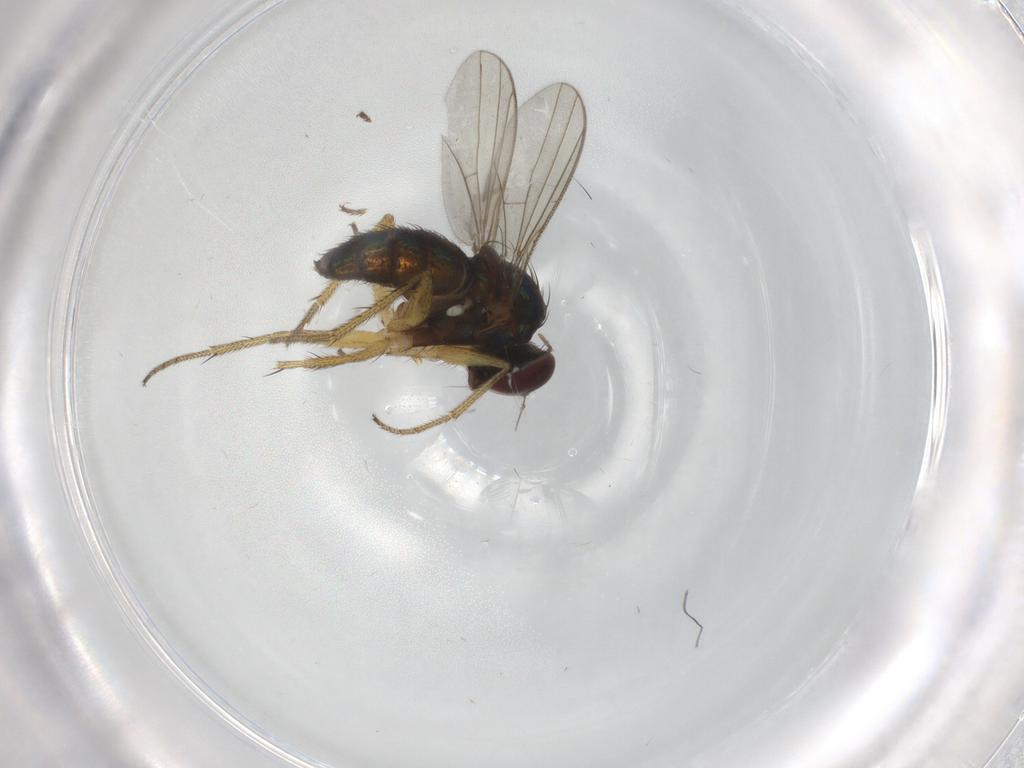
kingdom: Animalia
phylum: Arthropoda
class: Insecta
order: Diptera
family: Dolichopodidae
